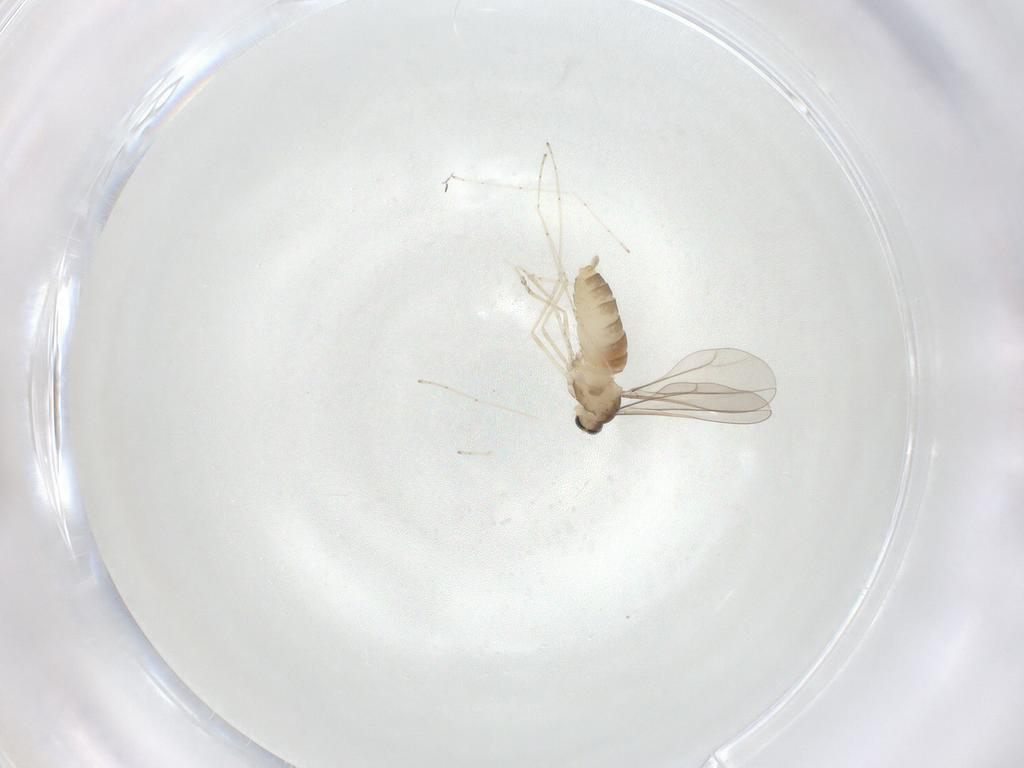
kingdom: Animalia
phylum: Arthropoda
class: Insecta
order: Diptera
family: Cecidomyiidae
